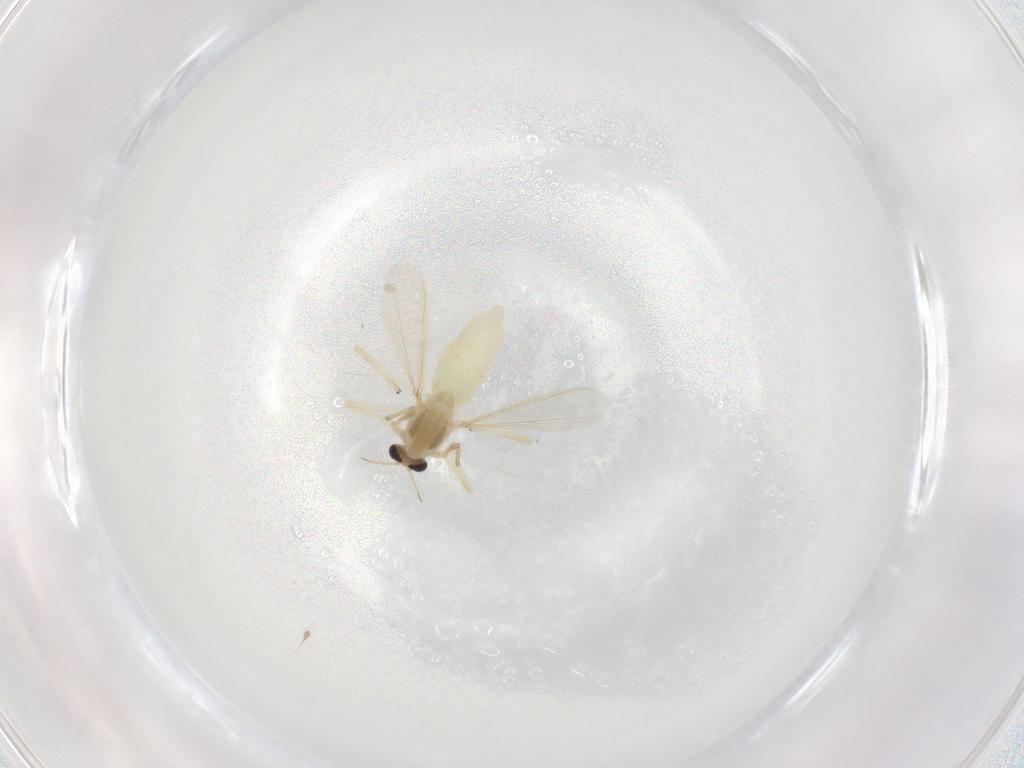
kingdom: Animalia
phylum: Arthropoda
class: Insecta
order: Diptera
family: Chironomidae
